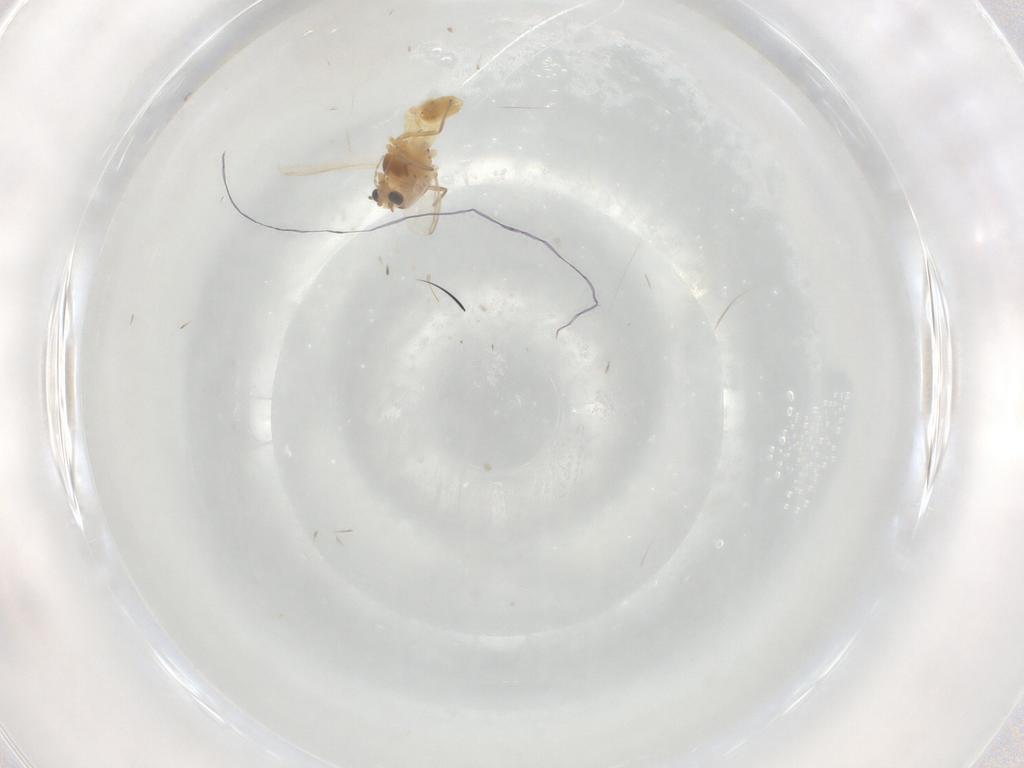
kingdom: Animalia
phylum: Arthropoda
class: Insecta
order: Diptera
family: Chironomidae
